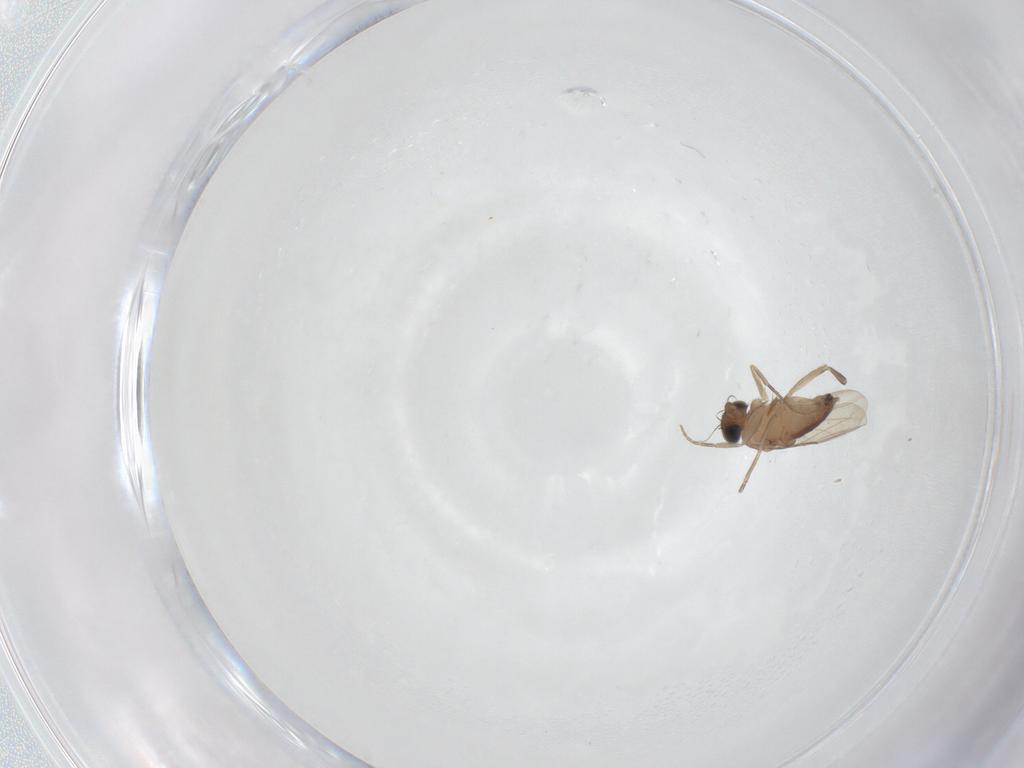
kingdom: Animalia
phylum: Arthropoda
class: Insecta
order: Diptera
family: Phoridae
